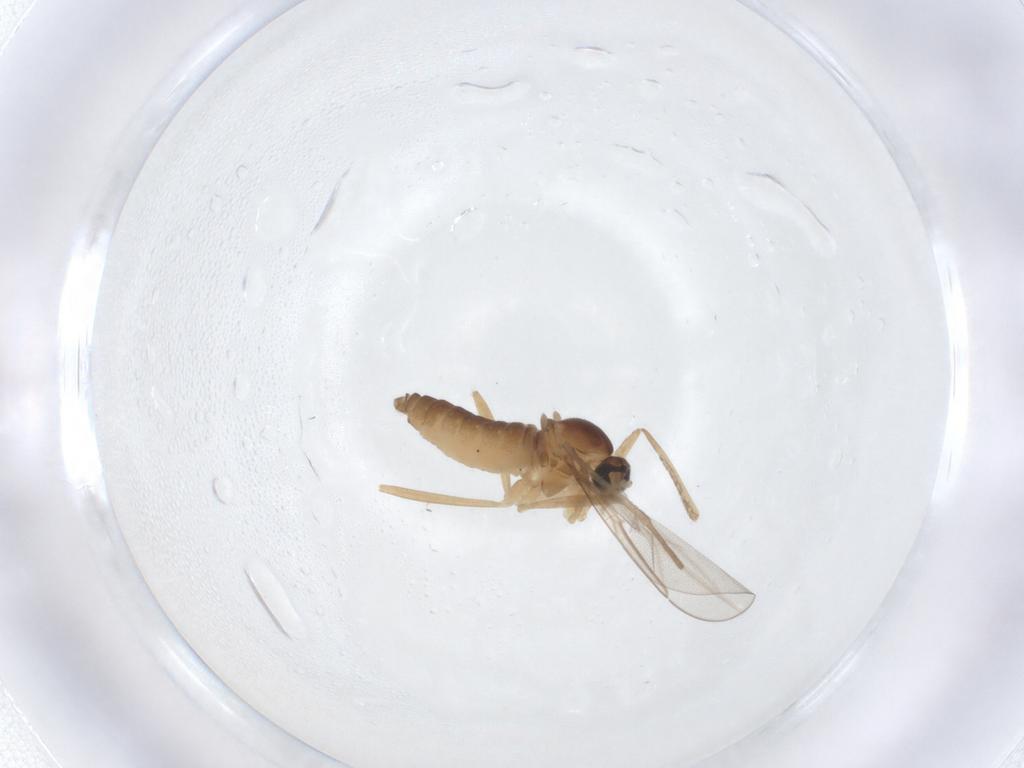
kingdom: Animalia
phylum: Arthropoda
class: Insecta
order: Diptera
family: Cecidomyiidae
